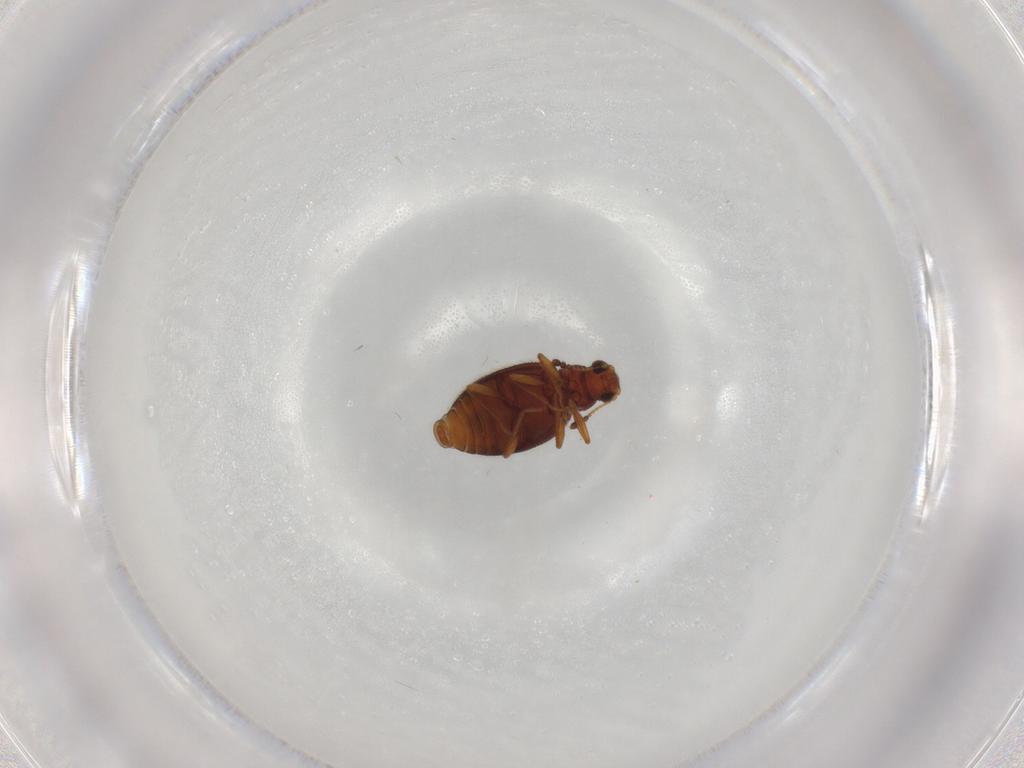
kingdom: Animalia
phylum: Arthropoda
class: Insecta
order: Coleoptera
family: Latridiidae
